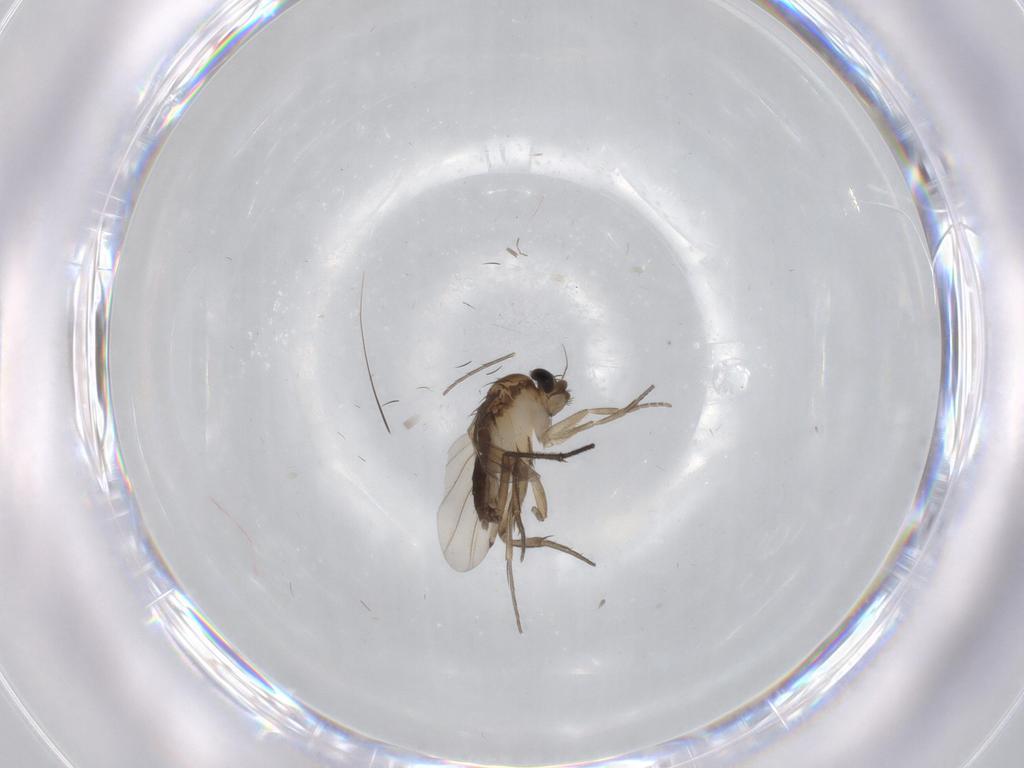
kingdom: Animalia
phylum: Arthropoda
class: Insecta
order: Diptera
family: Phoridae
